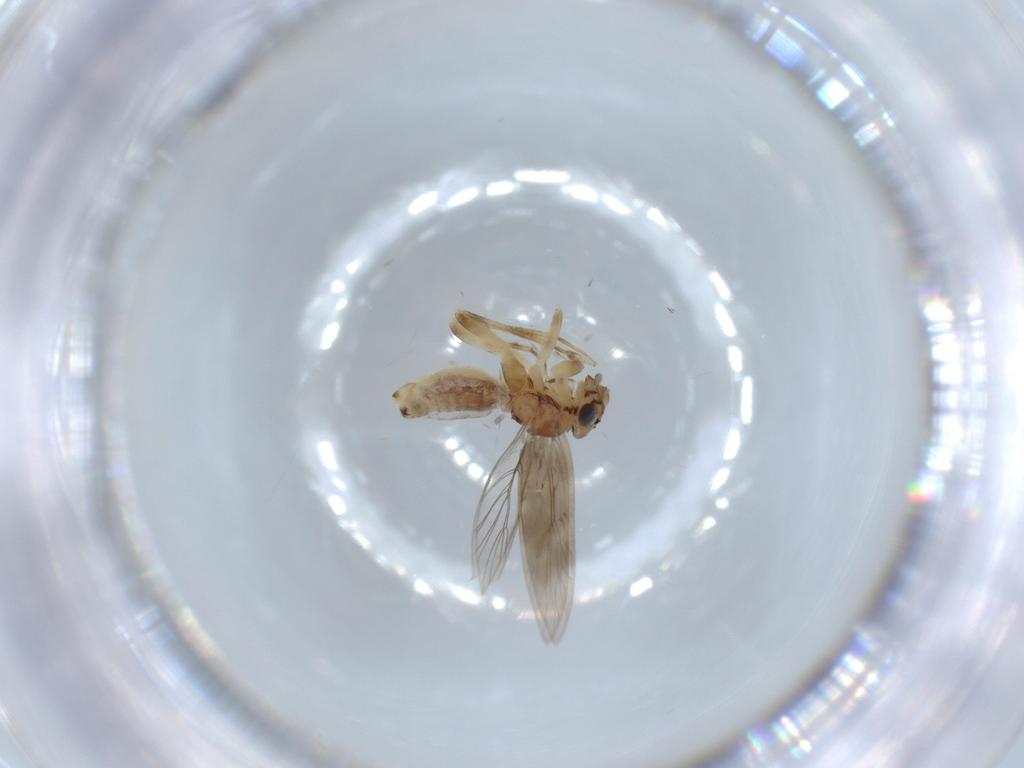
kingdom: Animalia
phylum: Arthropoda
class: Insecta
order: Psocodea
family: Lepidopsocidae
